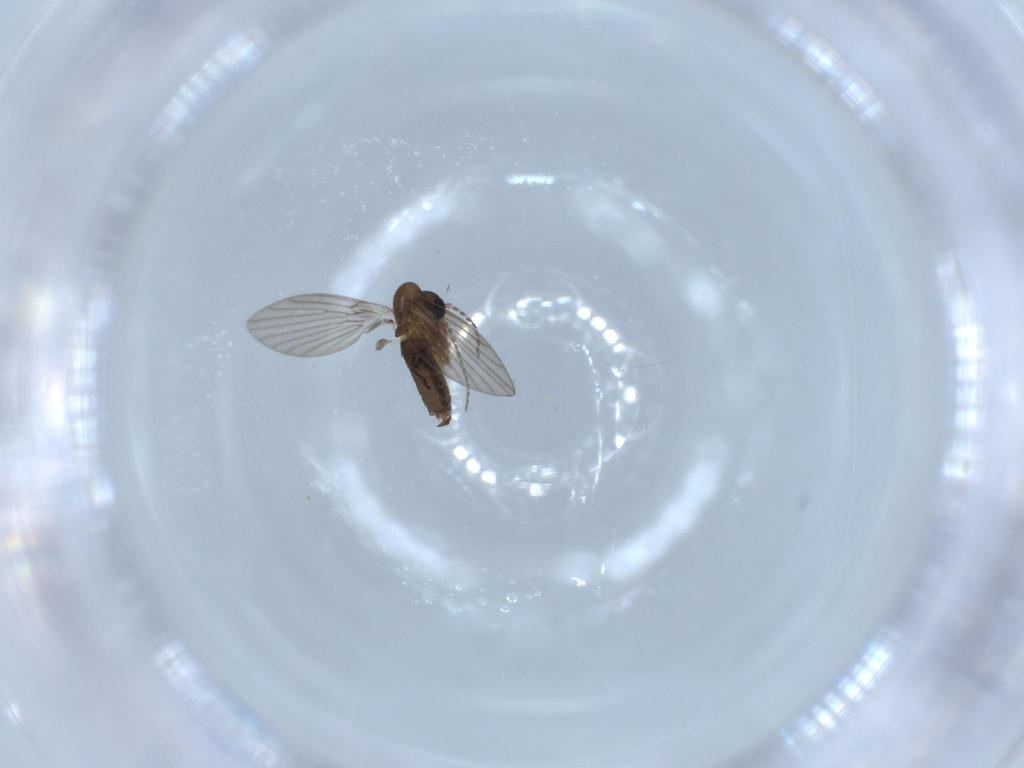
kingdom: Animalia
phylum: Arthropoda
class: Insecta
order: Diptera
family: Psychodidae
